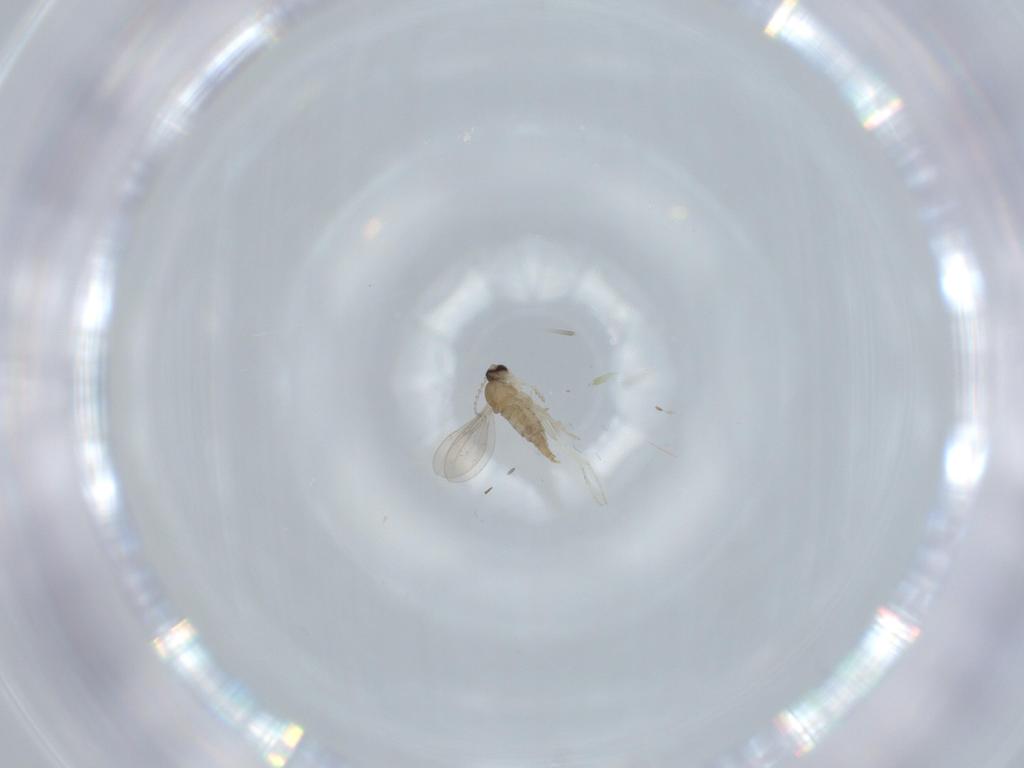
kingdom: Animalia
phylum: Arthropoda
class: Insecta
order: Diptera
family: Cecidomyiidae
